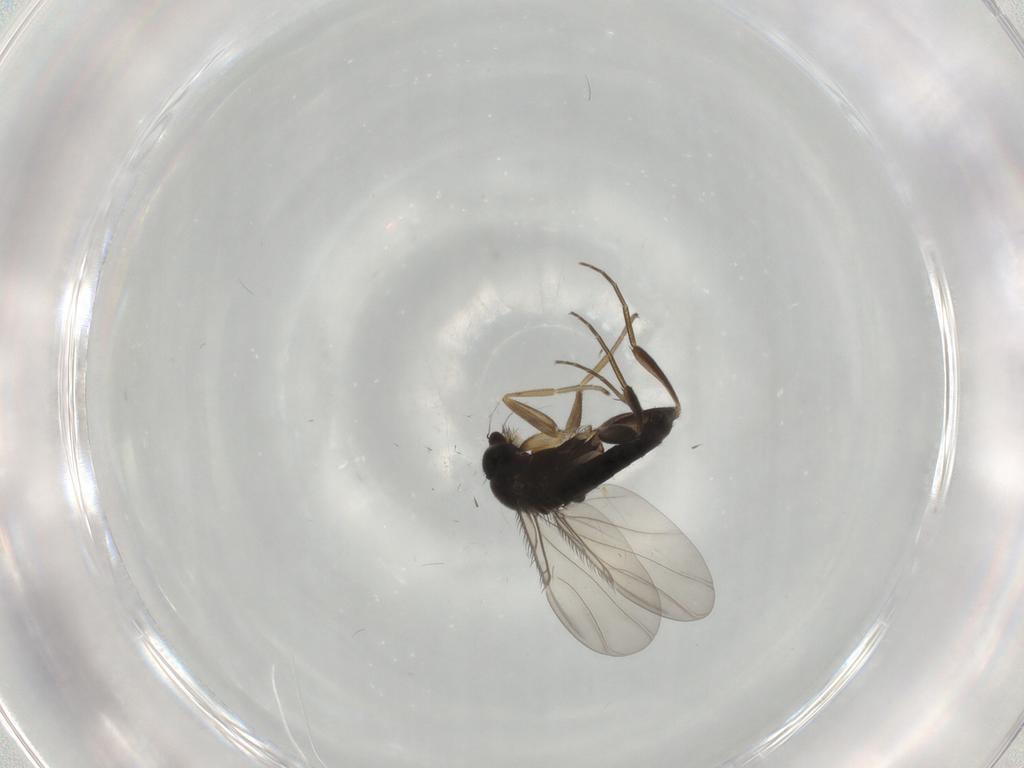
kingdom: Animalia
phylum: Arthropoda
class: Insecta
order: Diptera
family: Phoridae
